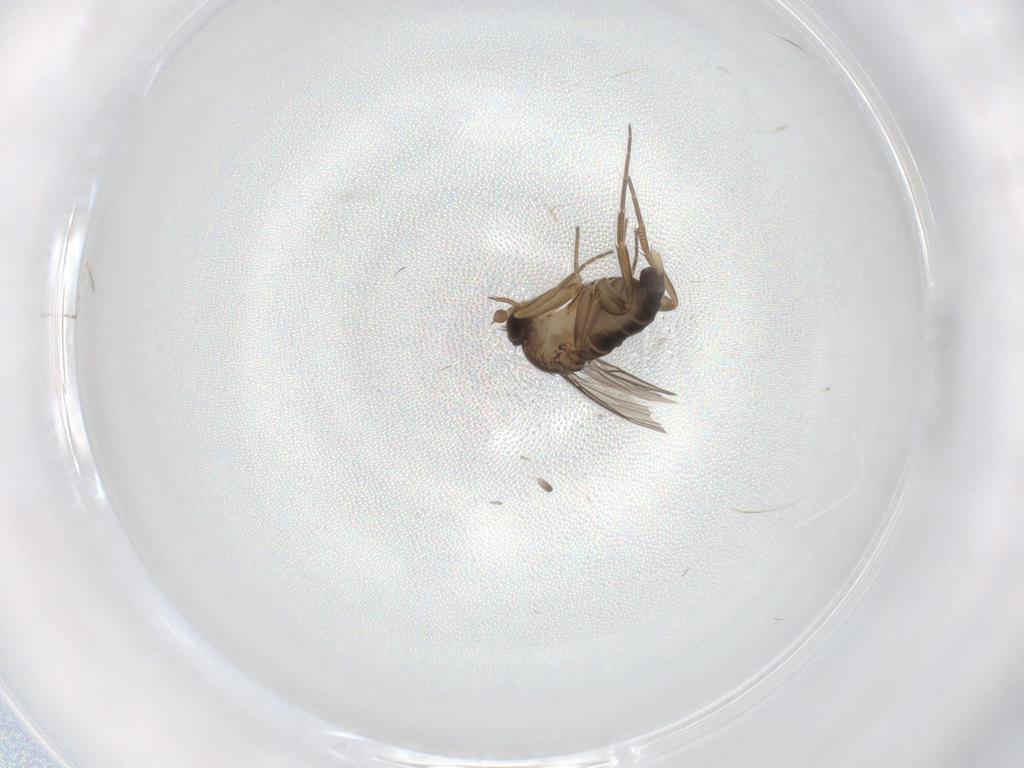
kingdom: Animalia
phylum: Arthropoda
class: Insecta
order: Diptera
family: Phoridae
